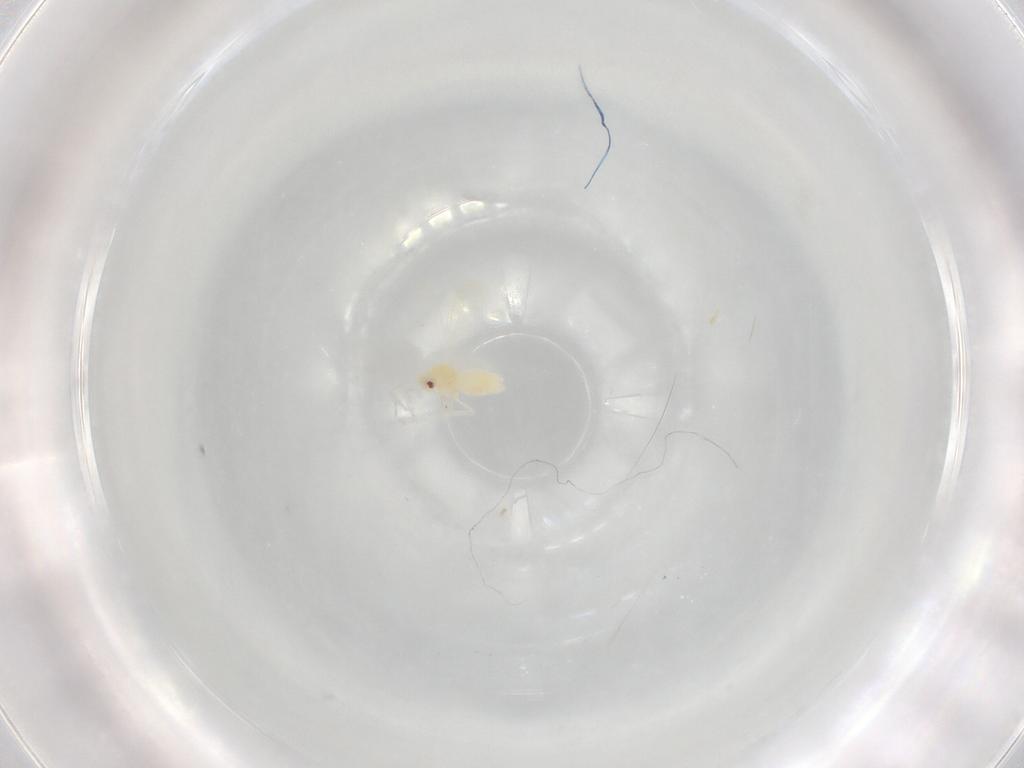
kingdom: Animalia
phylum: Arthropoda
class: Insecta
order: Hemiptera
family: Aleyrodidae
